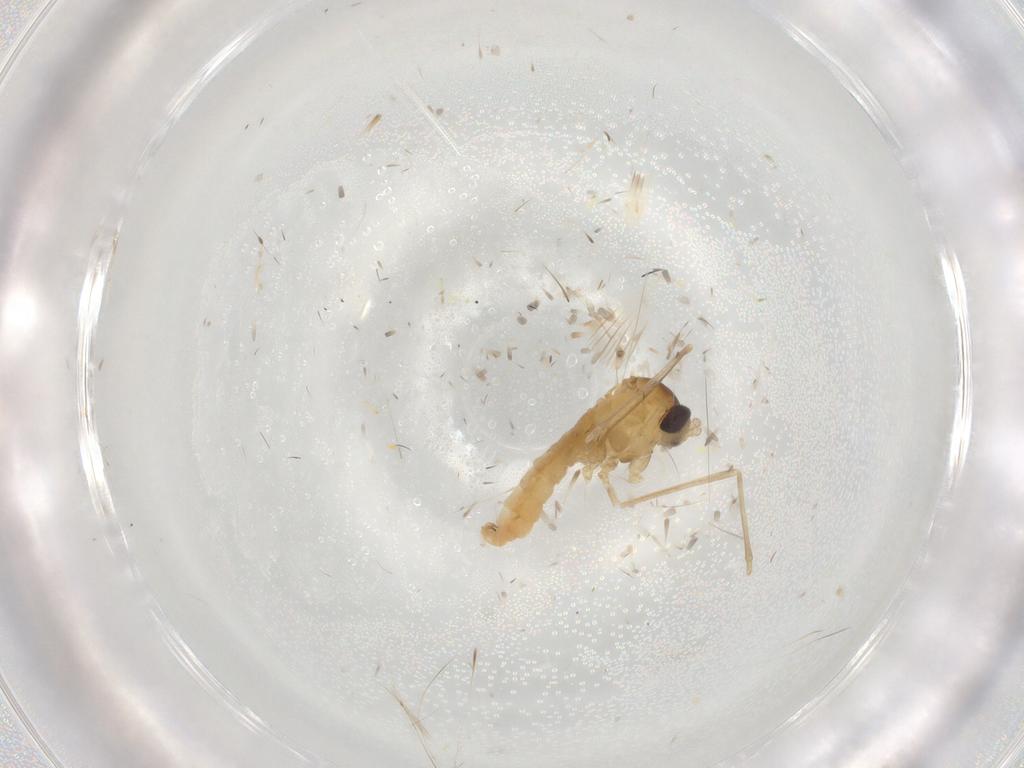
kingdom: Animalia
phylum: Arthropoda
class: Insecta
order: Diptera
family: Cecidomyiidae
